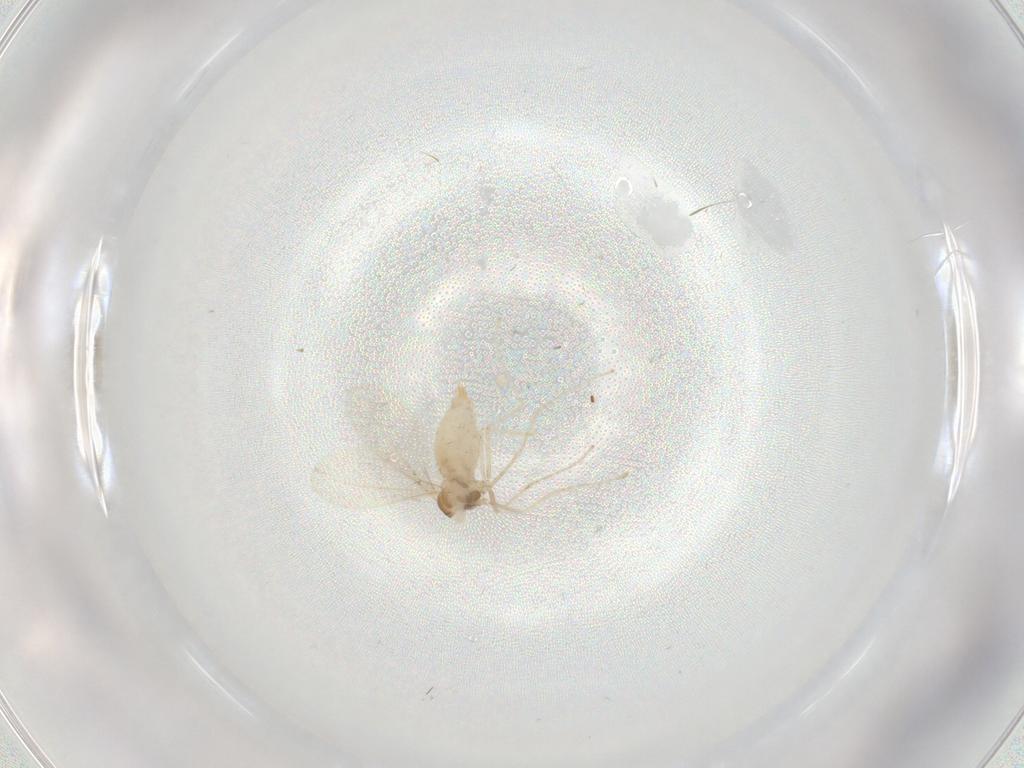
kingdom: Animalia
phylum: Arthropoda
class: Insecta
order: Diptera
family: Cecidomyiidae
